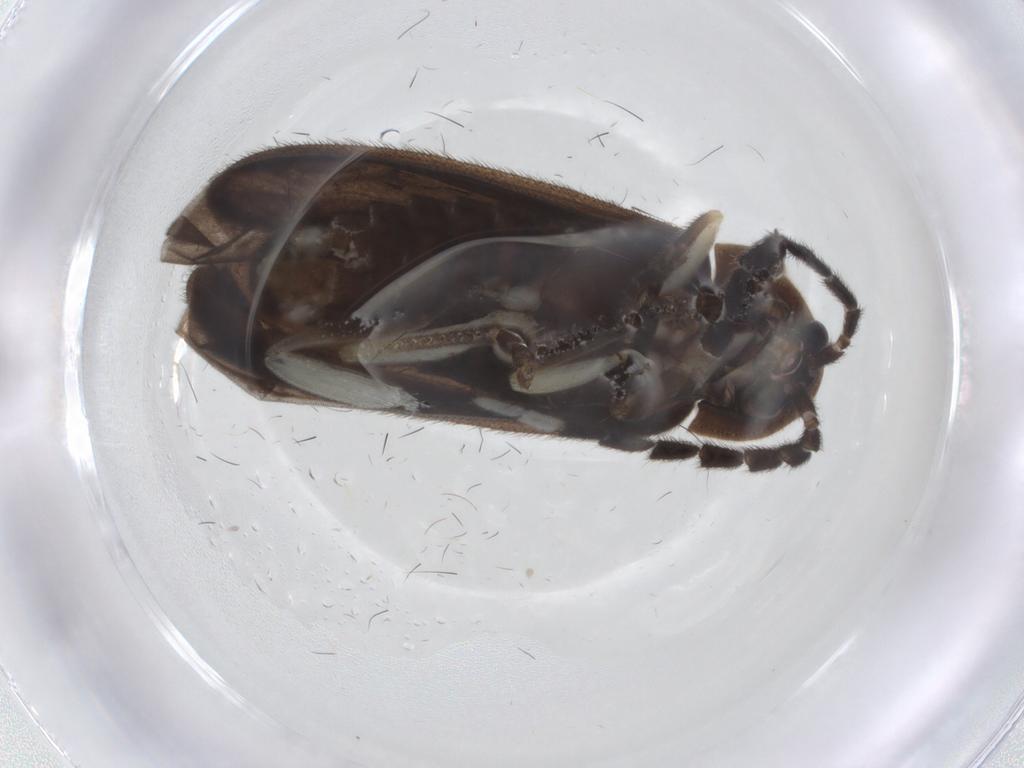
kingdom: Animalia
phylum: Arthropoda
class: Insecta
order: Coleoptera
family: Lampyridae
